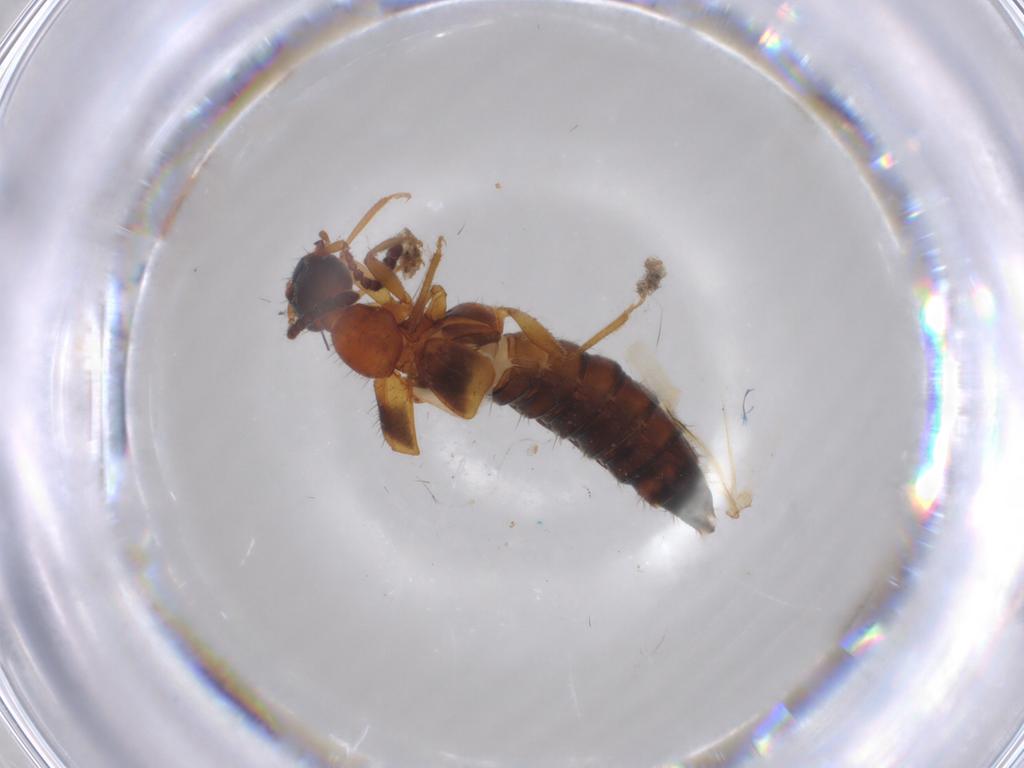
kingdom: Animalia
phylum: Arthropoda
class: Insecta
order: Coleoptera
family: Staphylinidae
